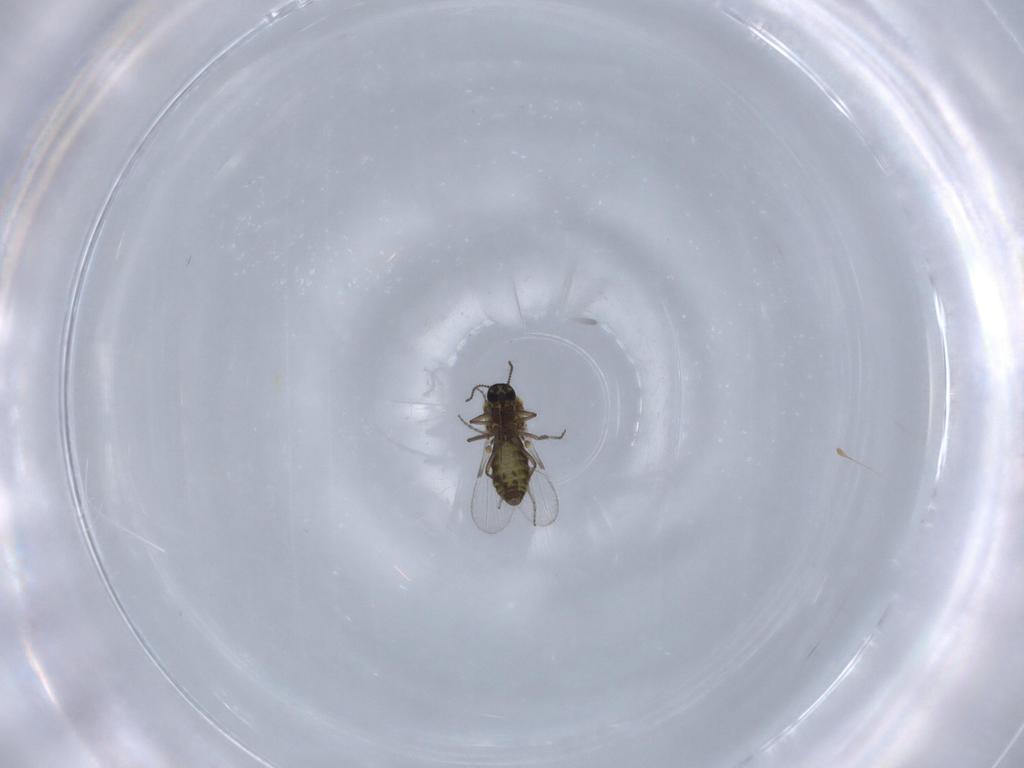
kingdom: Animalia
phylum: Arthropoda
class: Insecta
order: Diptera
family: Ceratopogonidae
